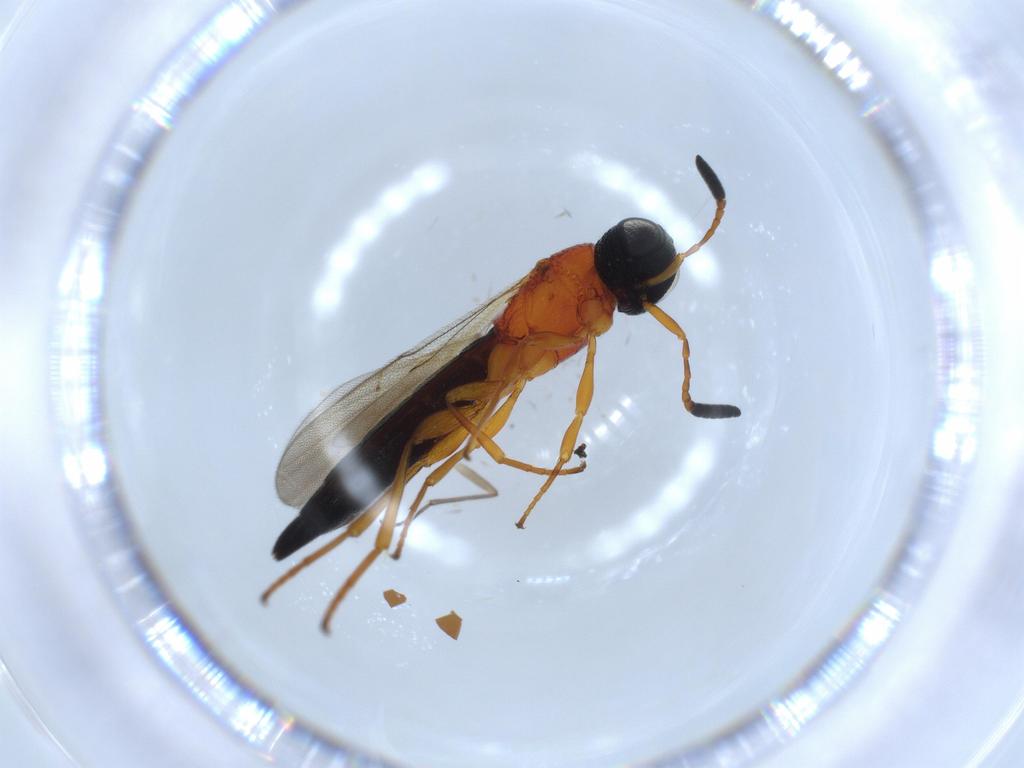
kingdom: Animalia
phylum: Arthropoda
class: Insecta
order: Hymenoptera
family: Scelionidae
